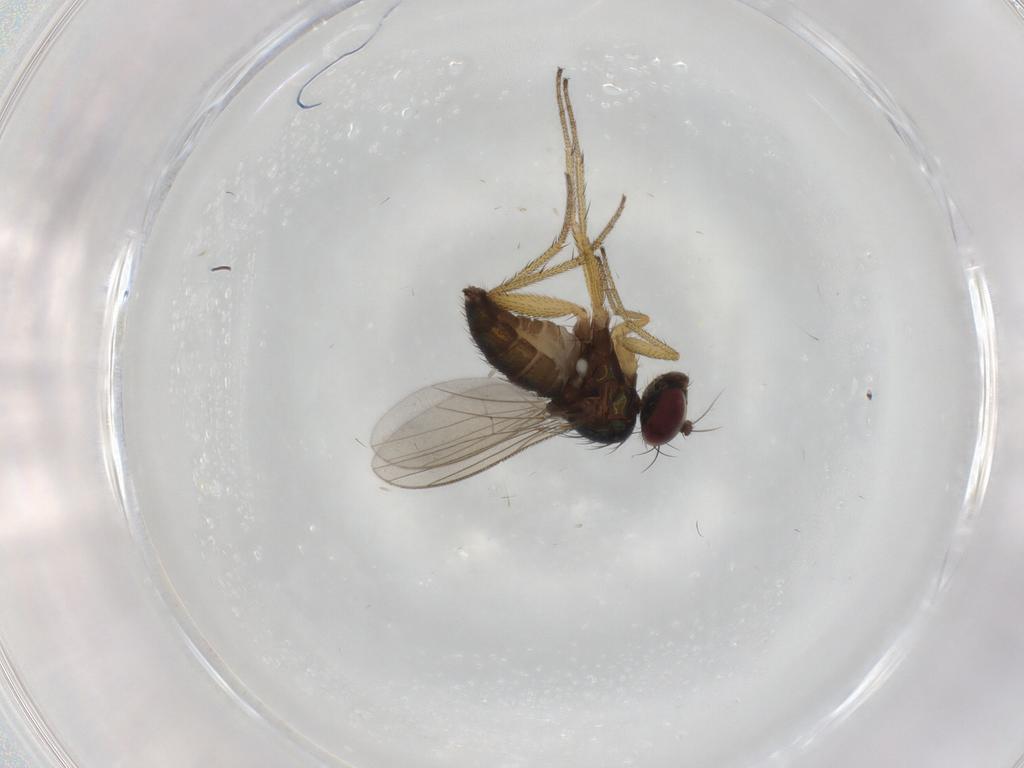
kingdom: Animalia
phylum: Arthropoda
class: Insecta
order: Diptera
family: Dolichopodidae
